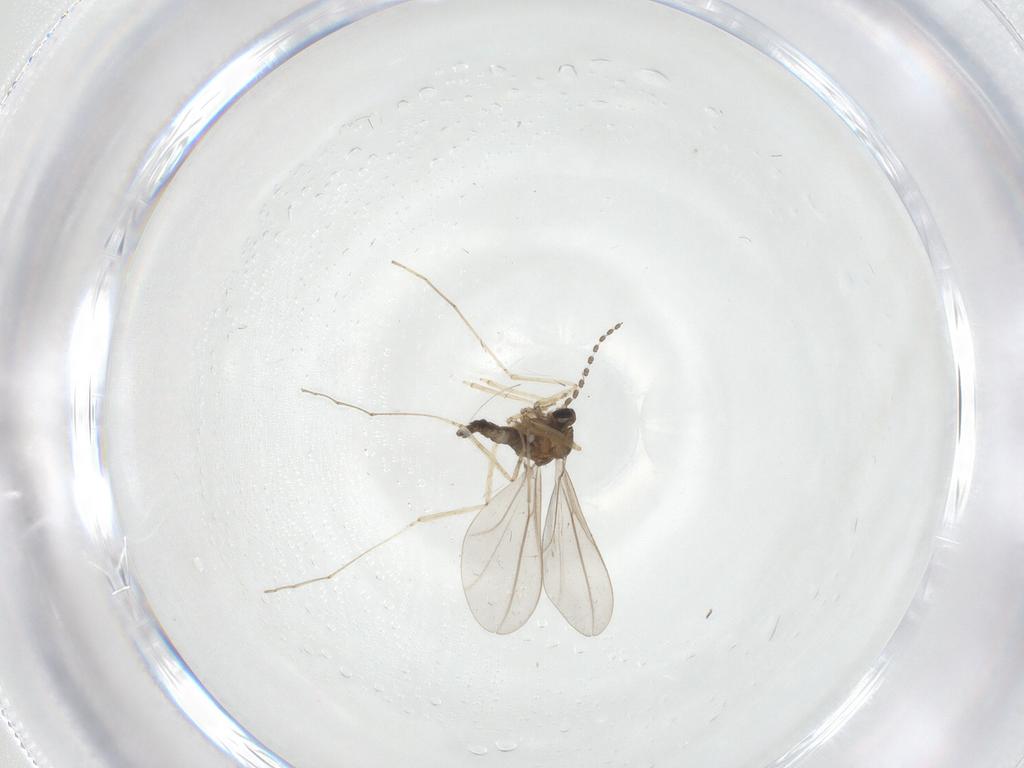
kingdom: Animalia
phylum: Arthropoda
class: Insecta
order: Diptera
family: Cecidomyiidae
